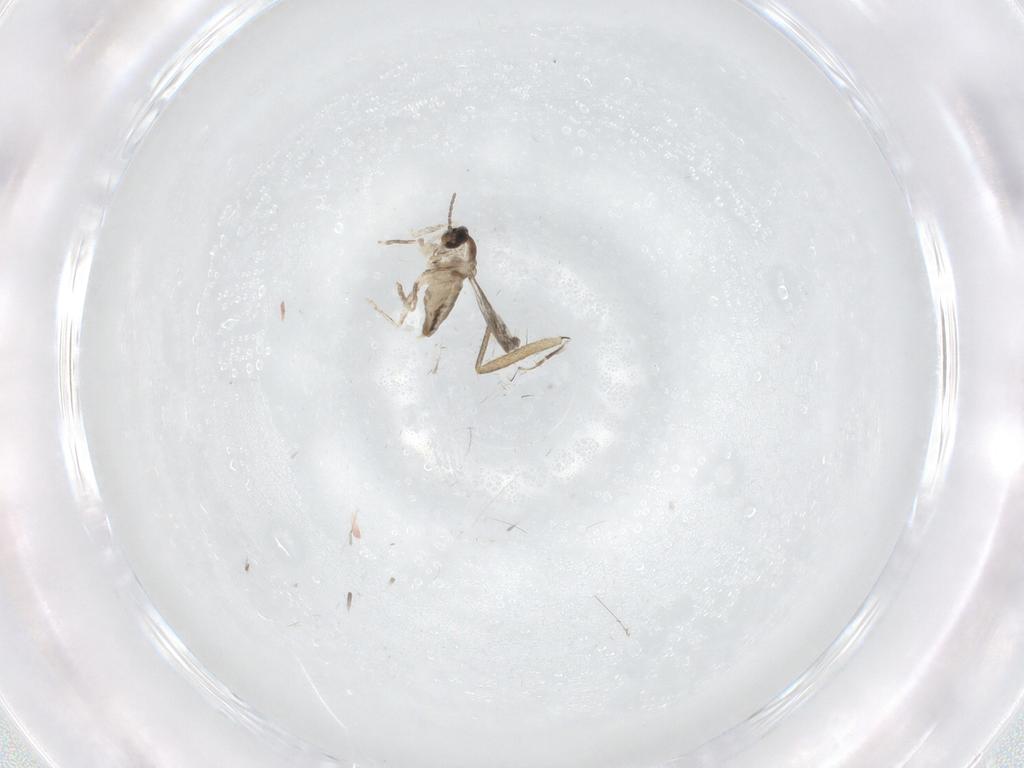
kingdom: Animalia
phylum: Arthropoda
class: Insecta
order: Diptera
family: Cecidomyiidae
